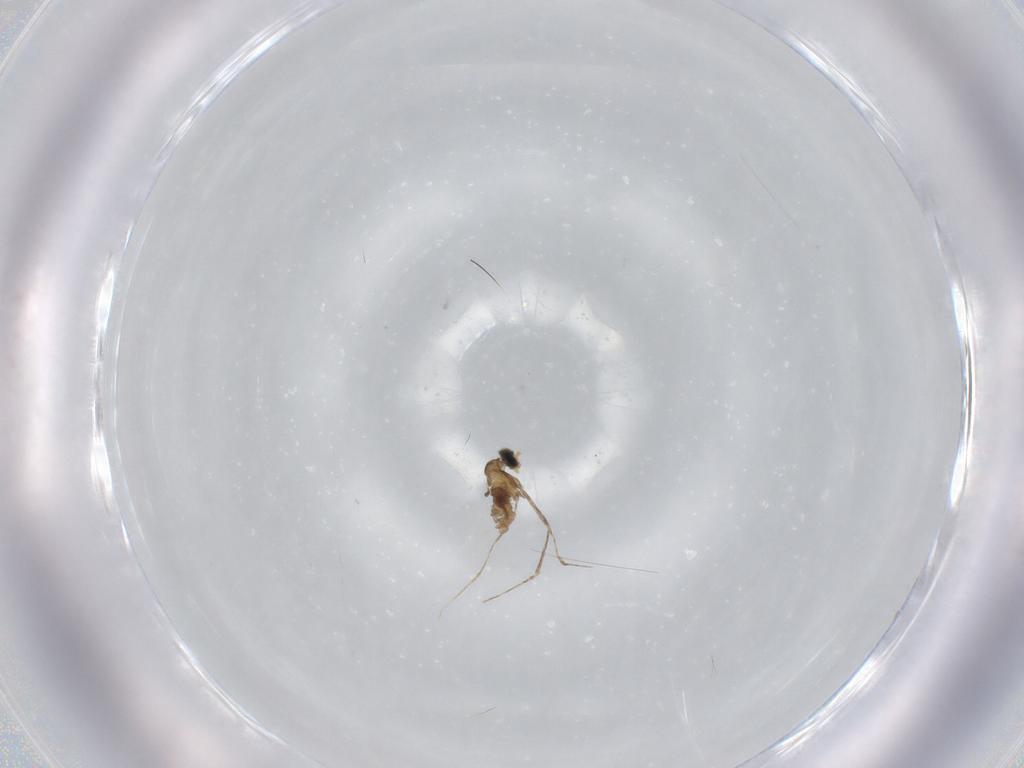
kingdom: Animalia
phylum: Arthropoda
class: Insecta
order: Diptera
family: Cecidomyiidae
